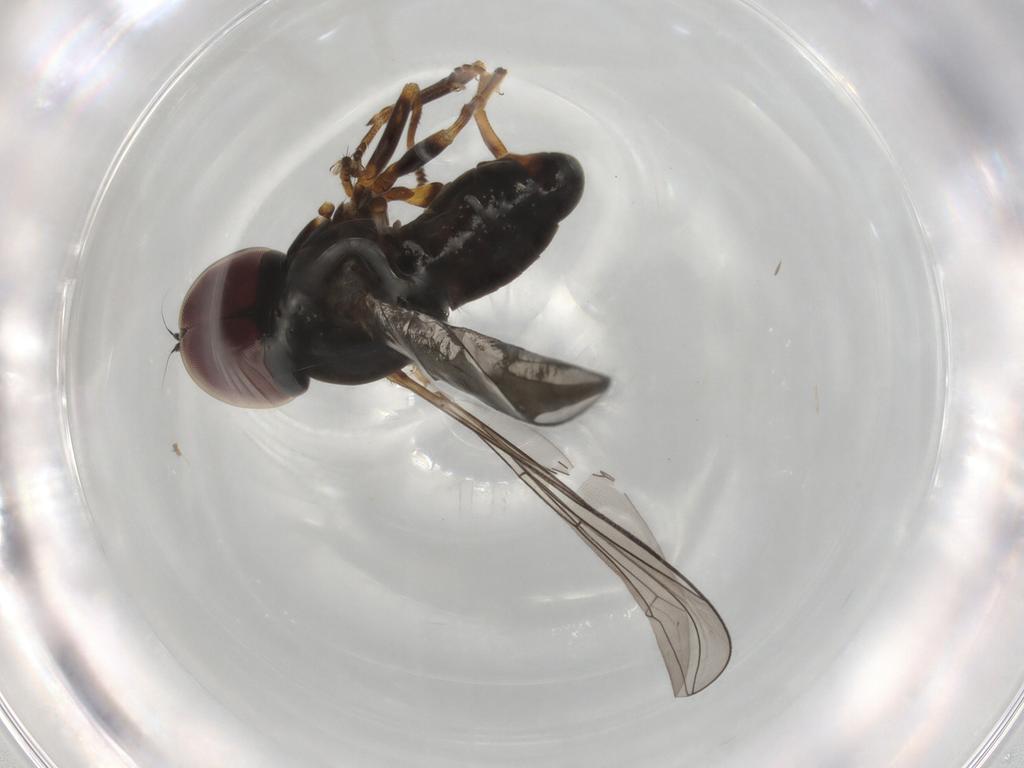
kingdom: Animalia
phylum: Arthropoda
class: Insecta
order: Diptera
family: Pipunculidae
